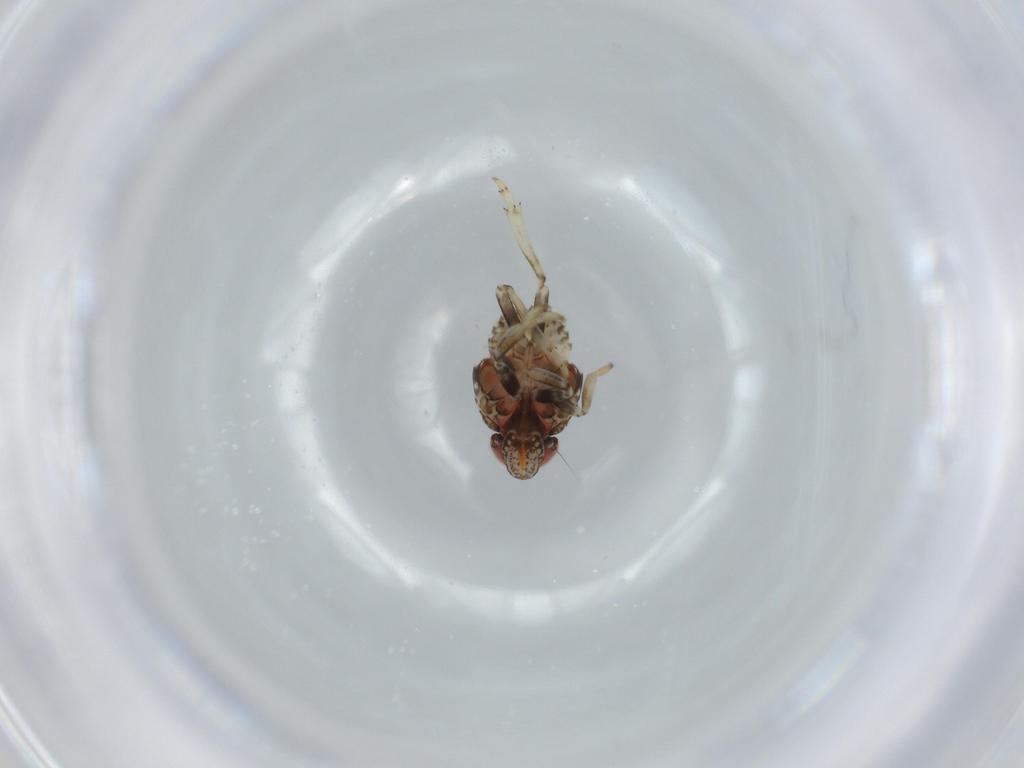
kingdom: Animalia
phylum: Arthropoda
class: Insecta
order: Hemiptera
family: Issidae
